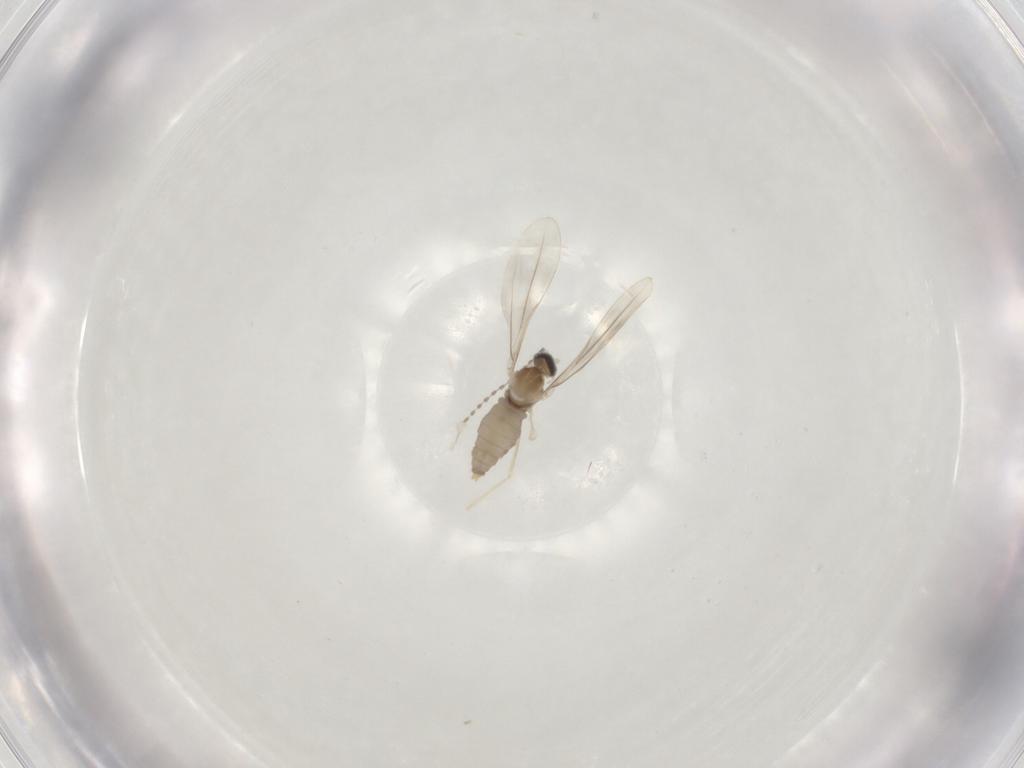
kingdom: Animalia
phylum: Arthropoda
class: Insecta
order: Diptera
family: Cecidomyiidae
